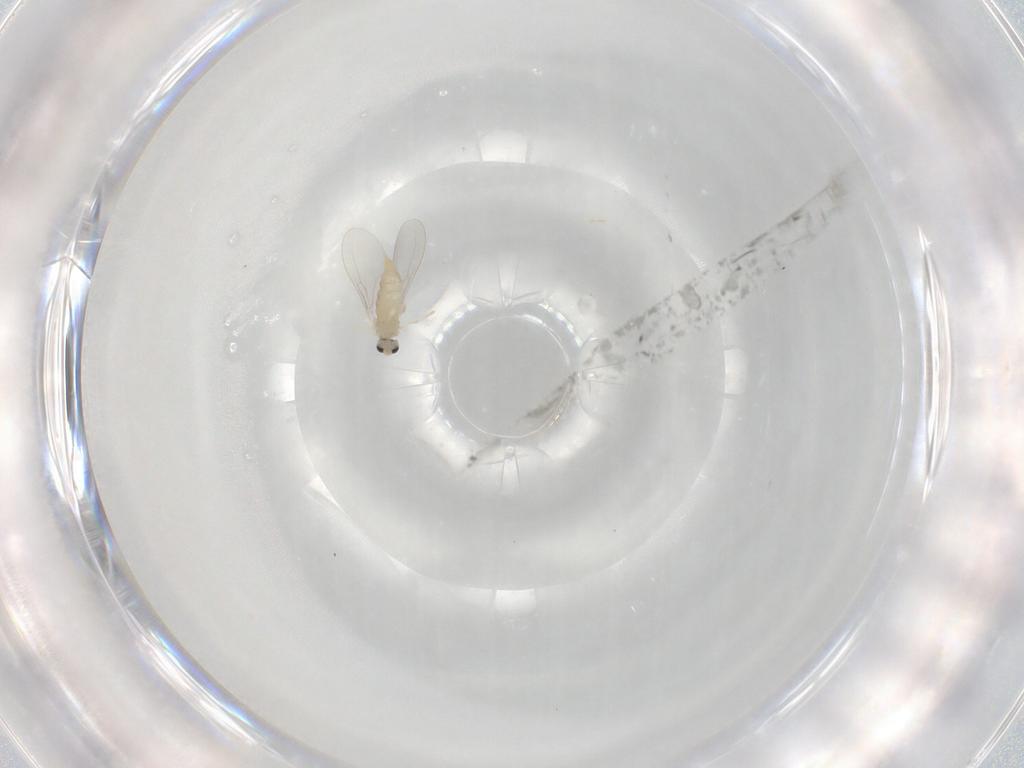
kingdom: Animalia
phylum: Arthropoda
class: Insecta
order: Diptera
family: Cecidomyiidae
